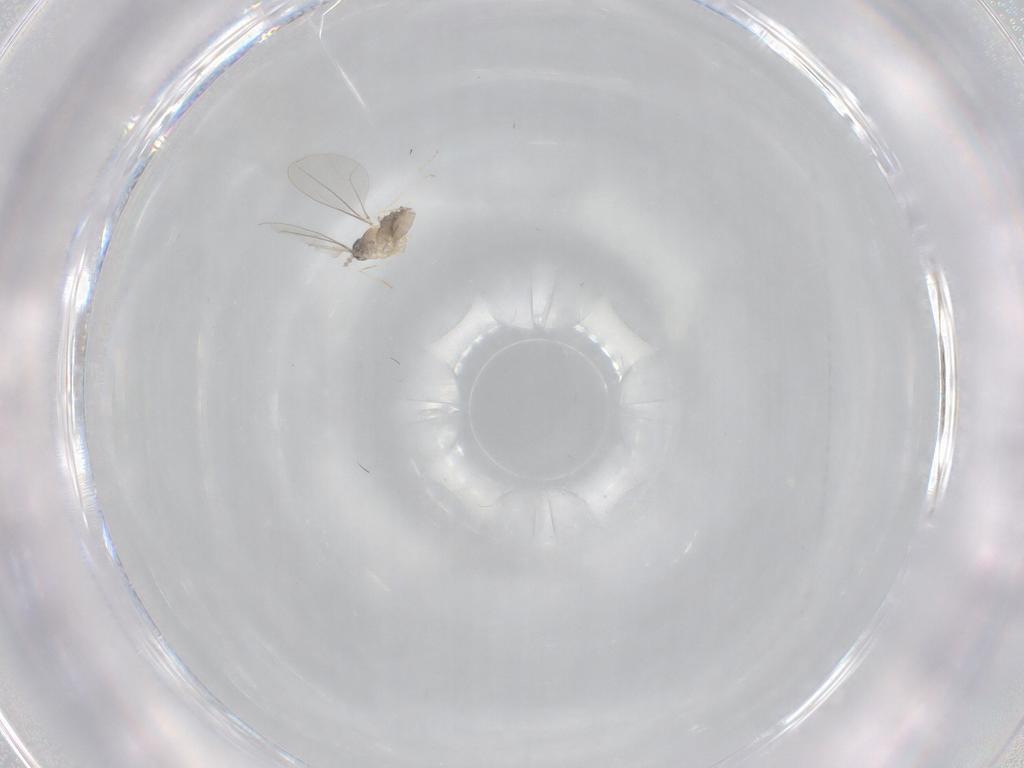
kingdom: Animalia
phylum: Arthropoda
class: Insecta
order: Diptera
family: Cecidomyiidae
